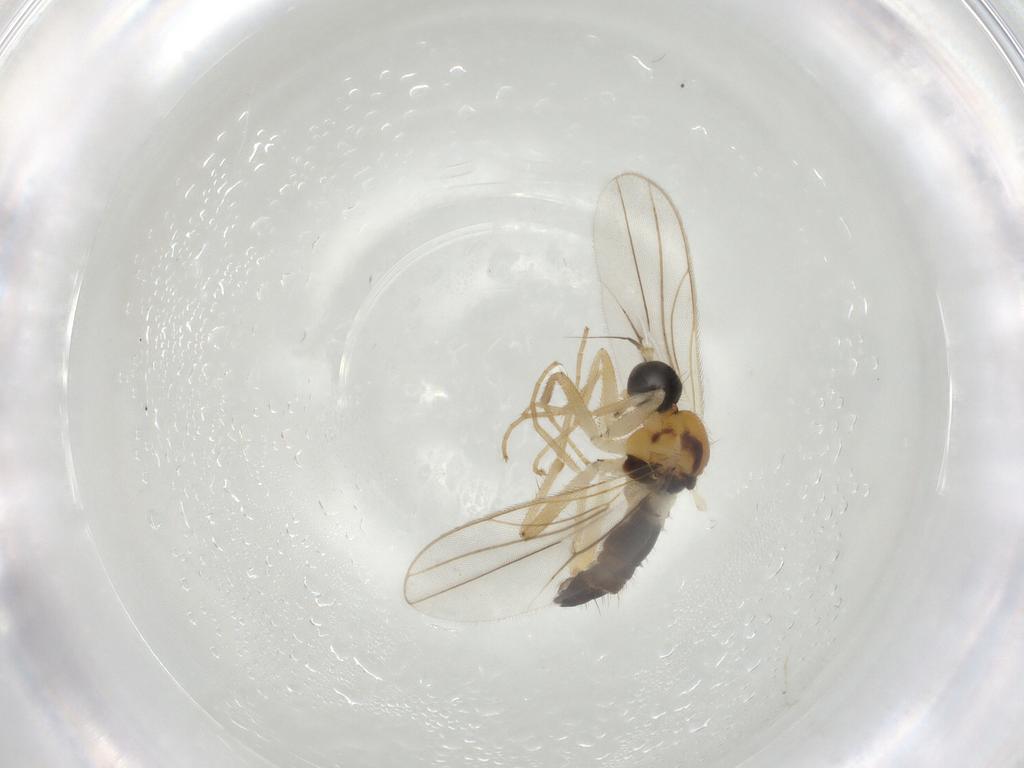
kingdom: Animalia
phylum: Arthropoda
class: Insecta
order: Diptera
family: Hybotidae
